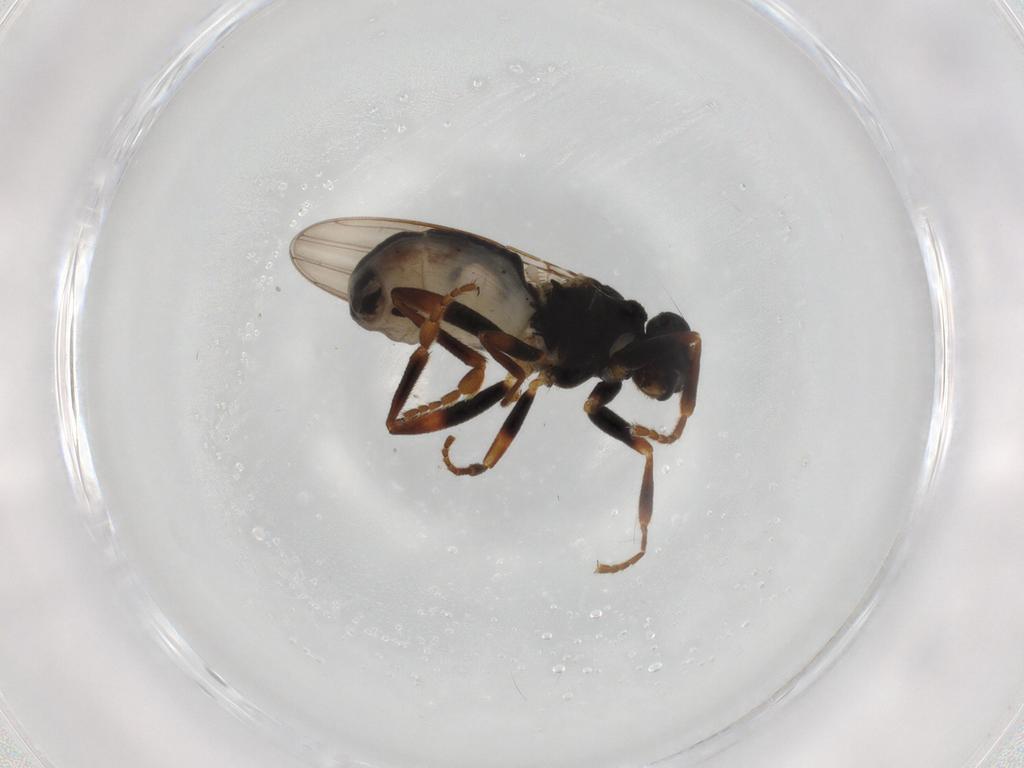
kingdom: Animalia
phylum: Arthropoda
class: Insecta
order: Diptera
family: Sphaeroceridae
